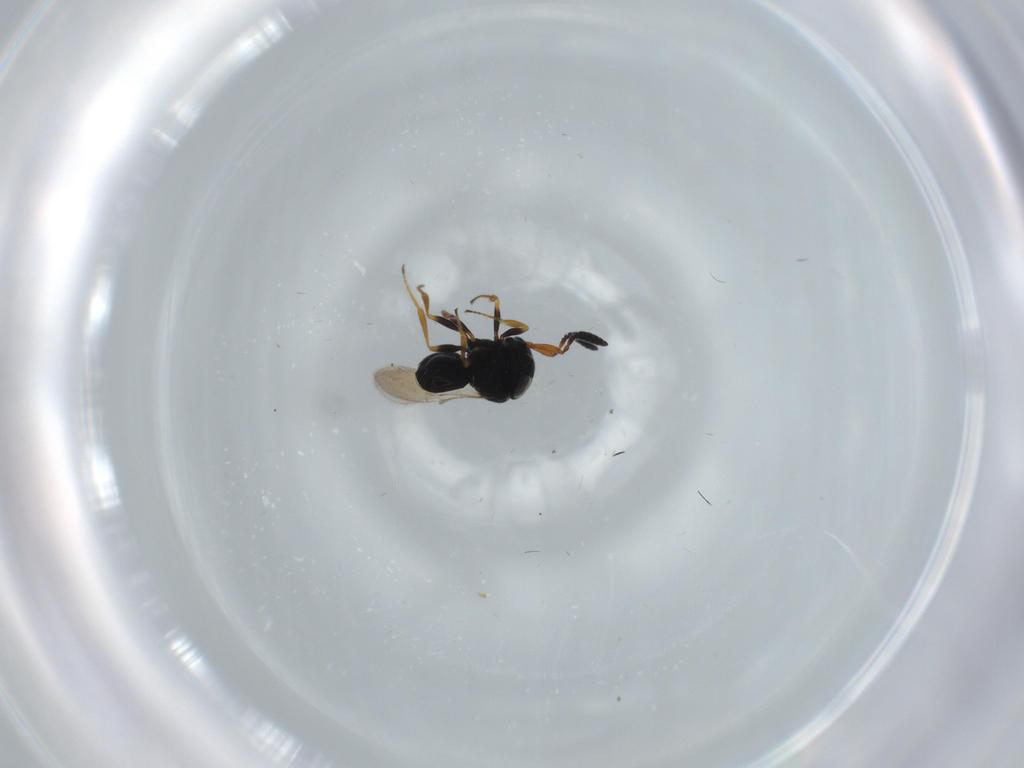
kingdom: Animalia
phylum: Arthropoda
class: Insecta
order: Hymenoptera
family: Scelionidae
